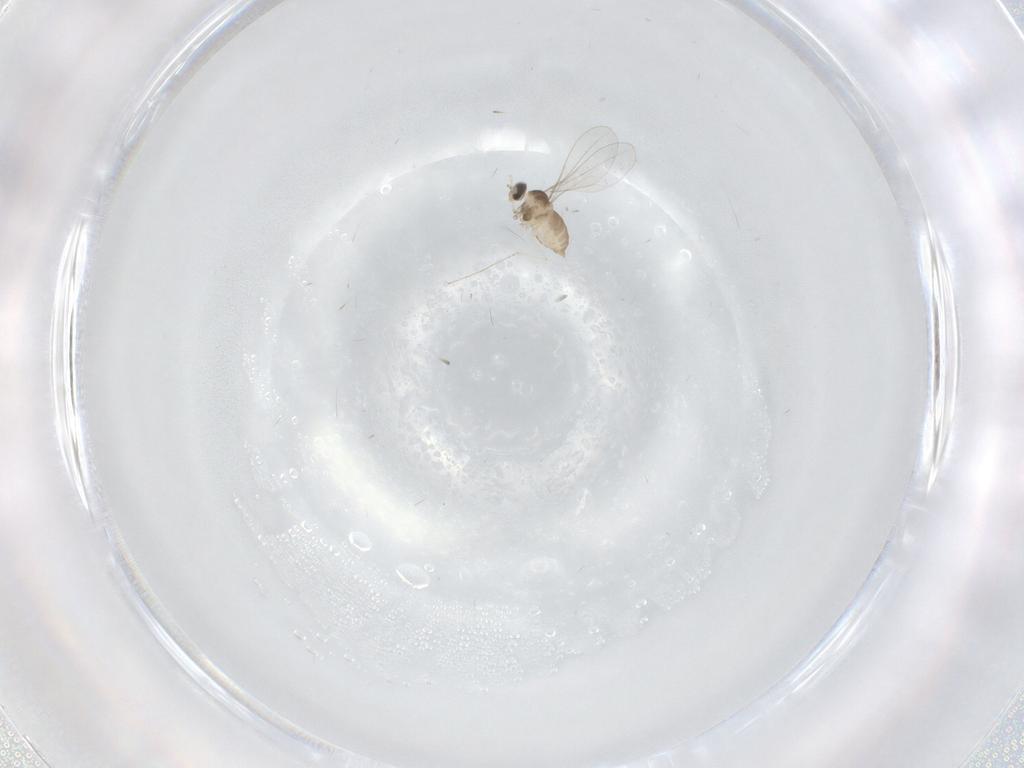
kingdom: Animalia
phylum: Arthropoda
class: Insecta
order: Diptera
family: Cecidomyiidae
